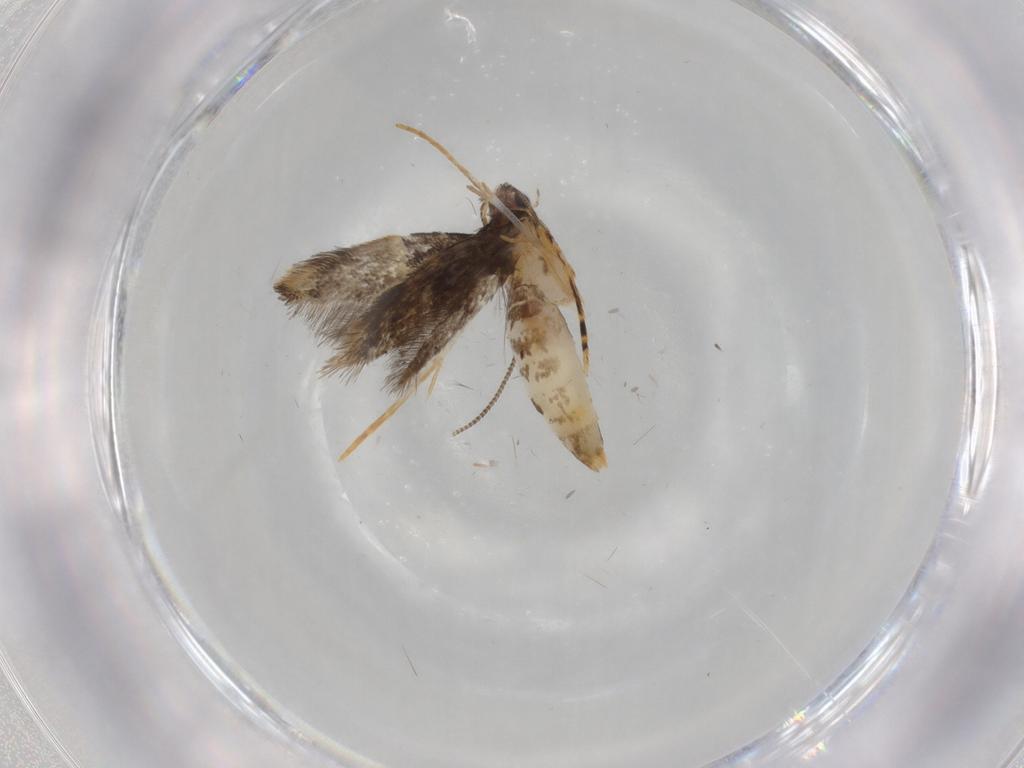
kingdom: Animalia
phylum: Arthropoda
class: Insecta
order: Lepidoptera
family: Tineidae
